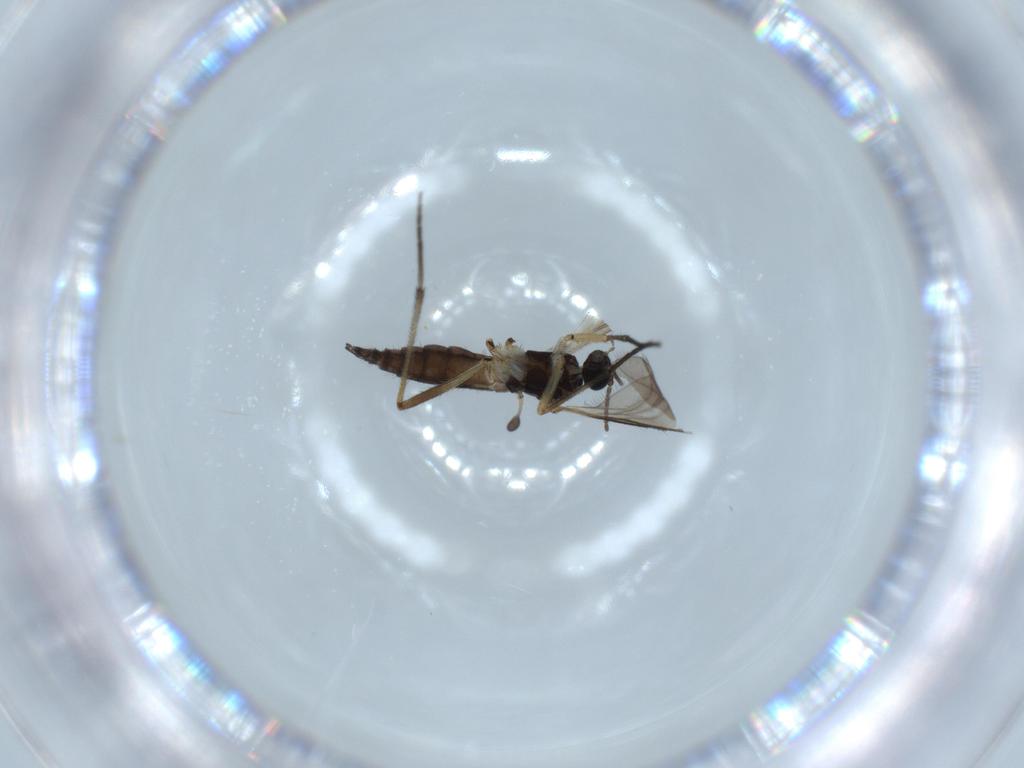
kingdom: Animalia
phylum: Arthropoda
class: Insecta
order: Diptera
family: Sciaridae
